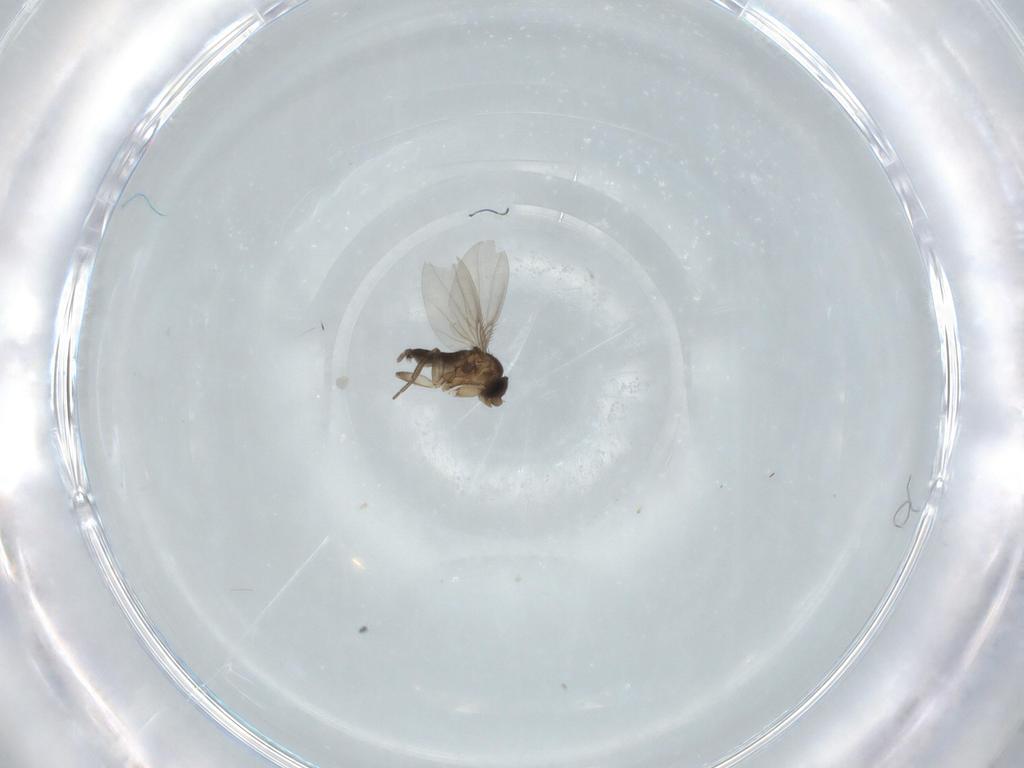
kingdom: Animalia
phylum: Arthropoda
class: Insecta
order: Diptera
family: Phoridae
